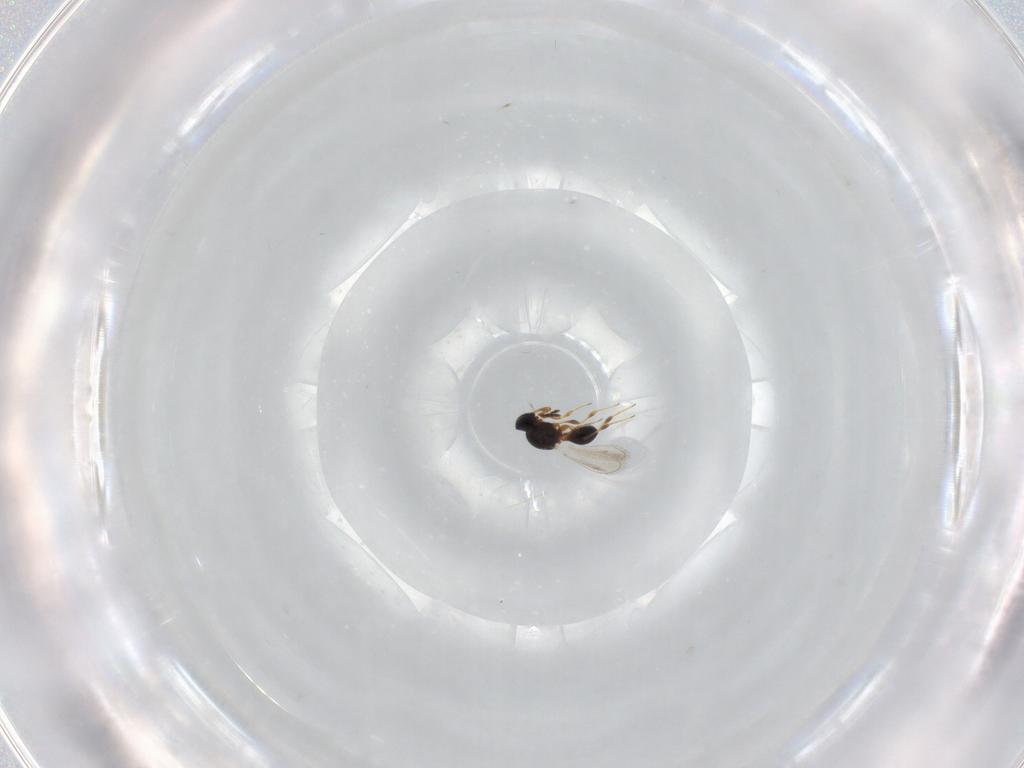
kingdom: Animalia
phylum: Arthropoda
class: Insecta
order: Hymenoptera
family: Platygastridae
